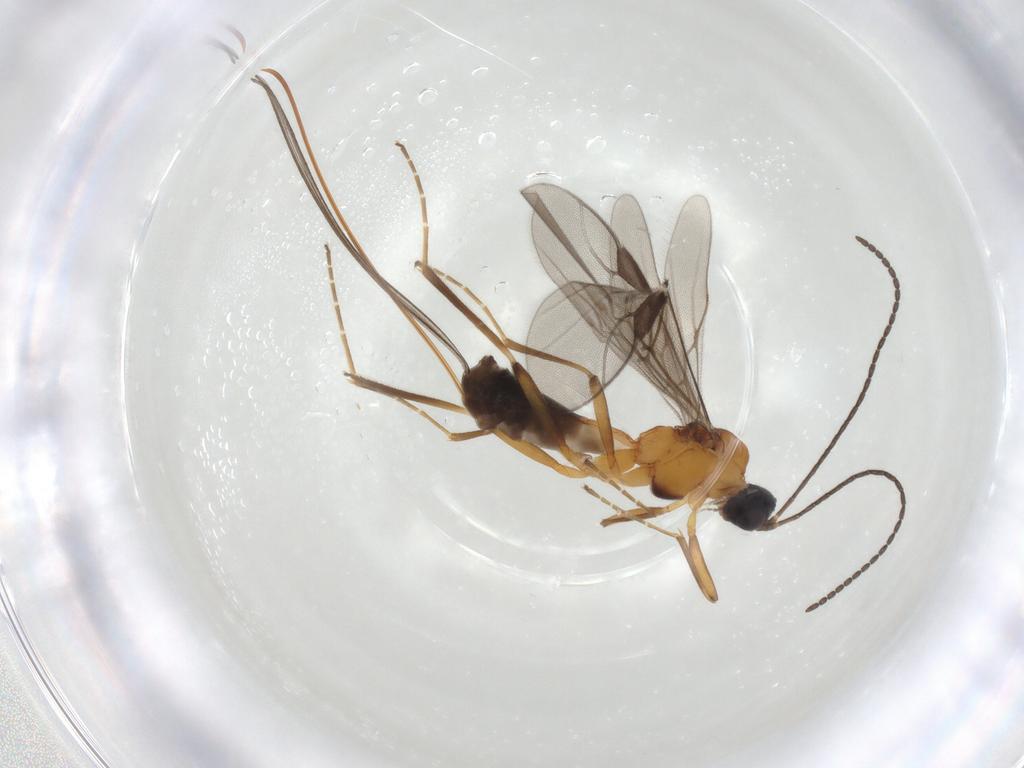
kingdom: Animalia
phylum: Arthropoda
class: Insecta
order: Hymenoptera
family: Braconidae
